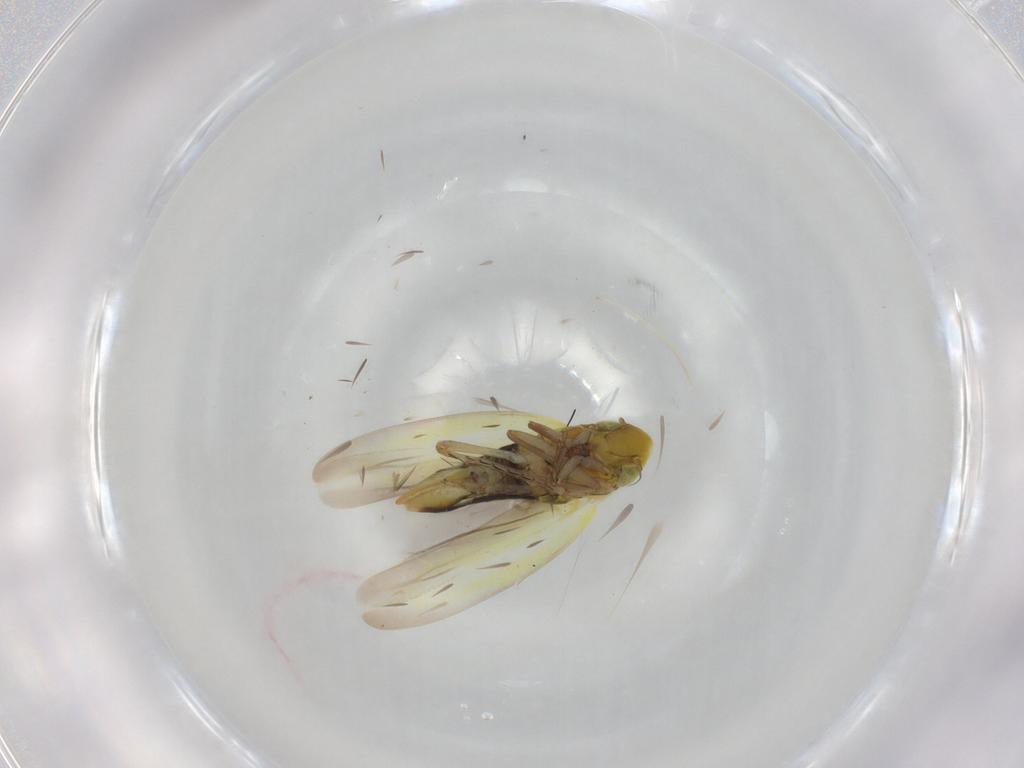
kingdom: Animalia
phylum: Arthropoda
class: Insecta
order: Hemiptera
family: Cicadellidae
